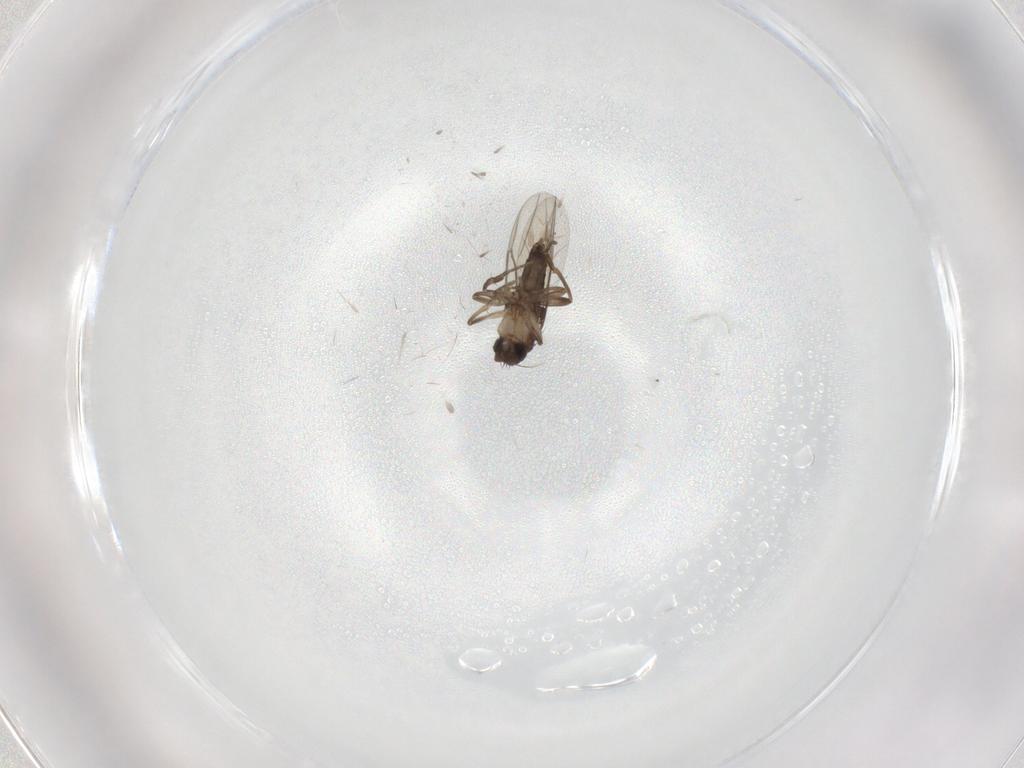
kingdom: Animalia
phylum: Arthropoda
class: Insecta
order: Diptera
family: Phoridae
